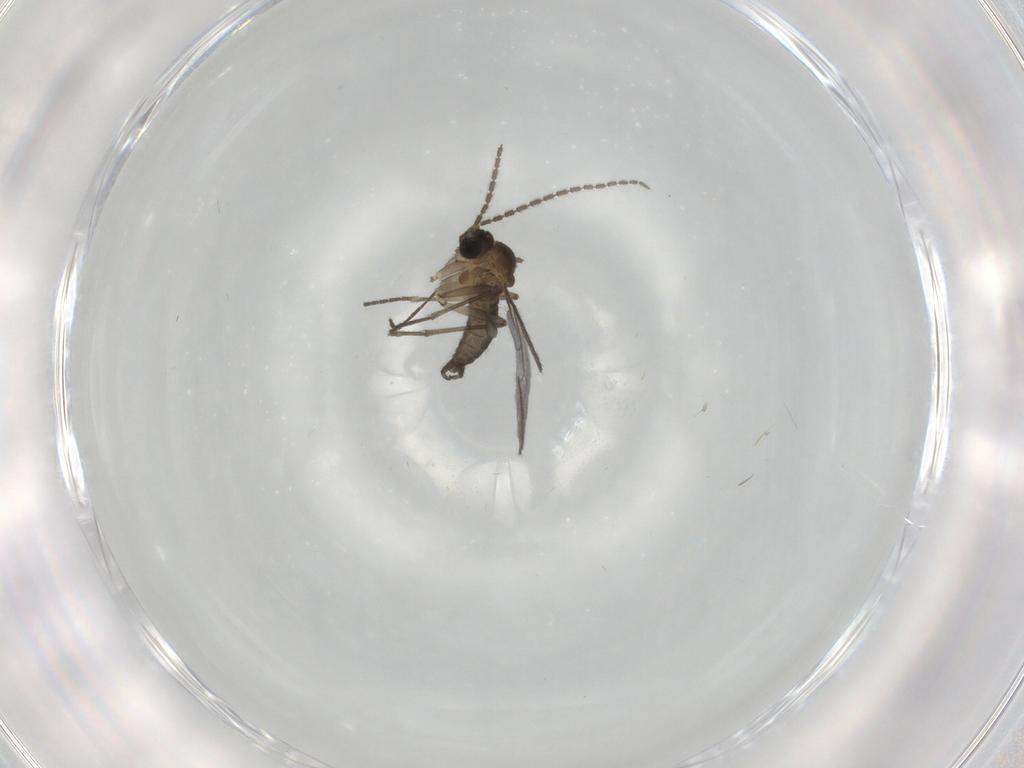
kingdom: Animalia
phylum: Arthropoda
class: Insecta
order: Diptera
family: Sciaridae
